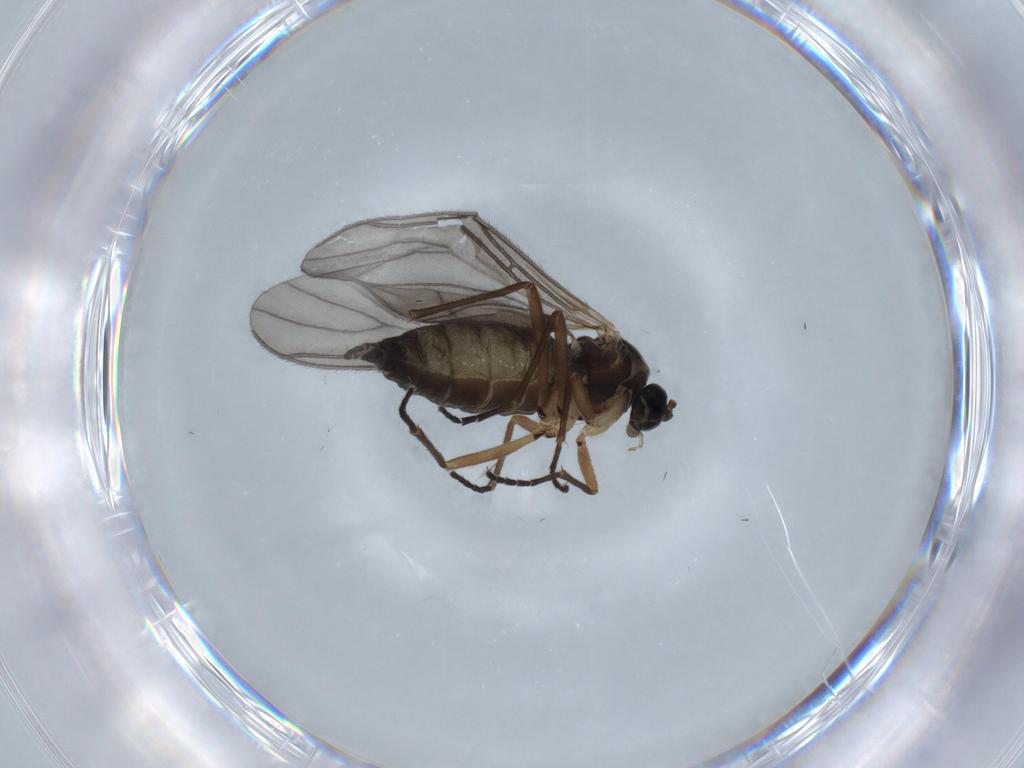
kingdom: Animalia
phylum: Arthropoda
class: Insecta
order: Diptera
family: Sciaridae
